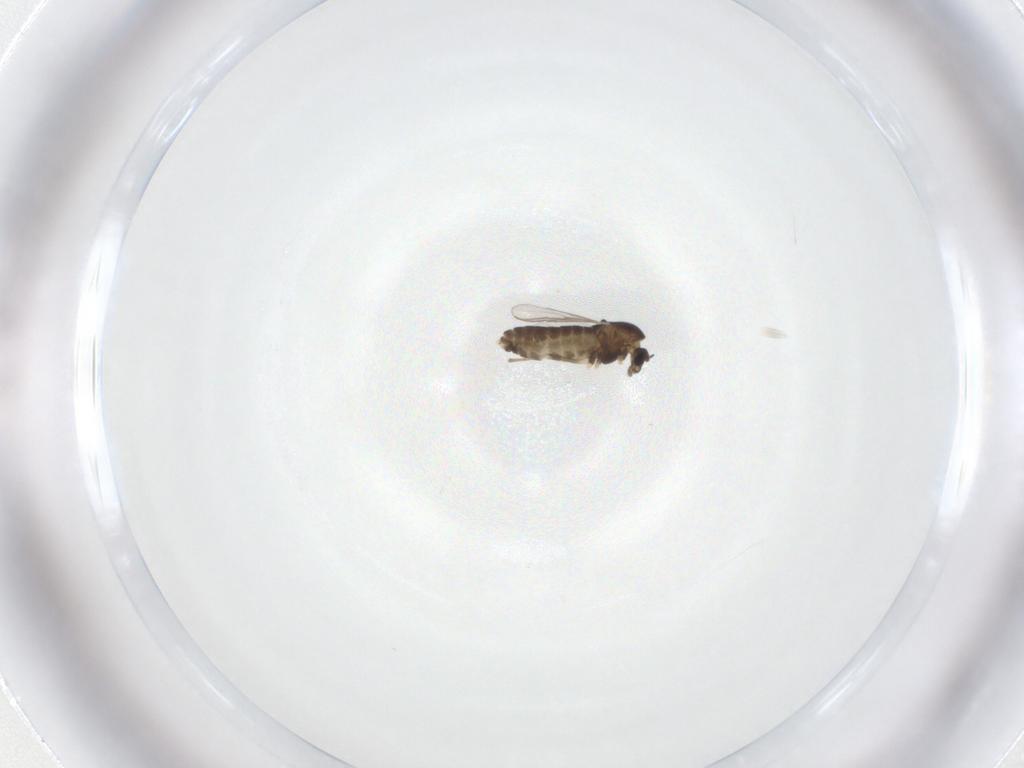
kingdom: Animalia
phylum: Arthropoda
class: Insecta
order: Diptera
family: Chironomidae
